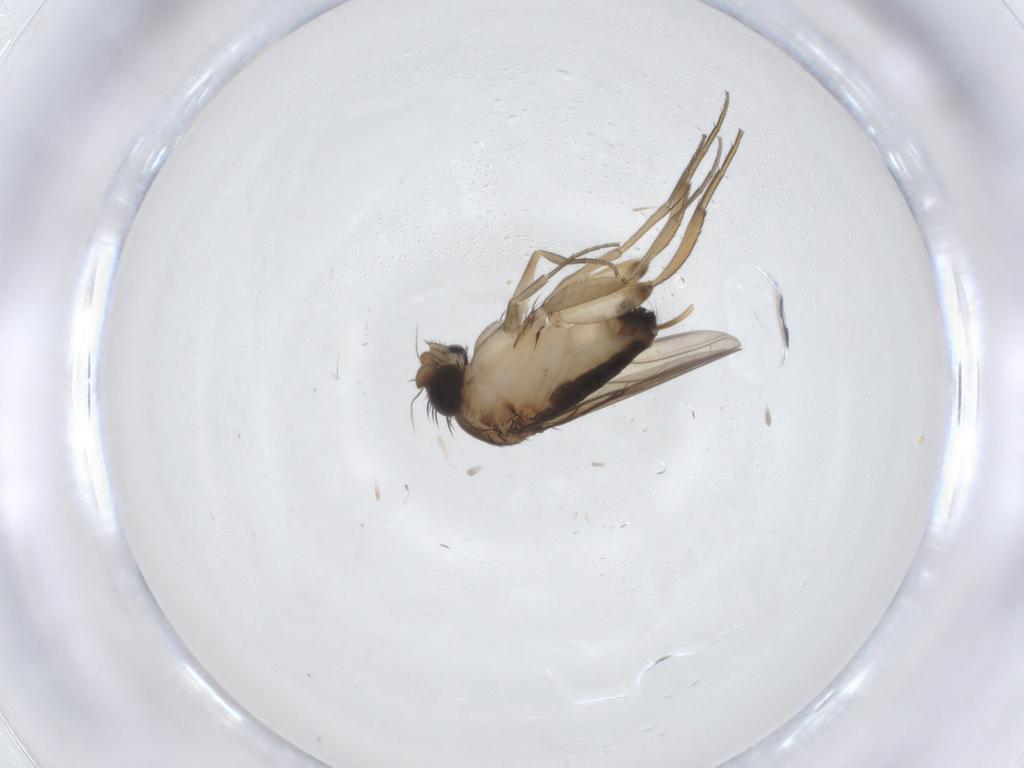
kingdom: Animalia
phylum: Arthropoda
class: Insecta
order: Diptera
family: Phoridae
